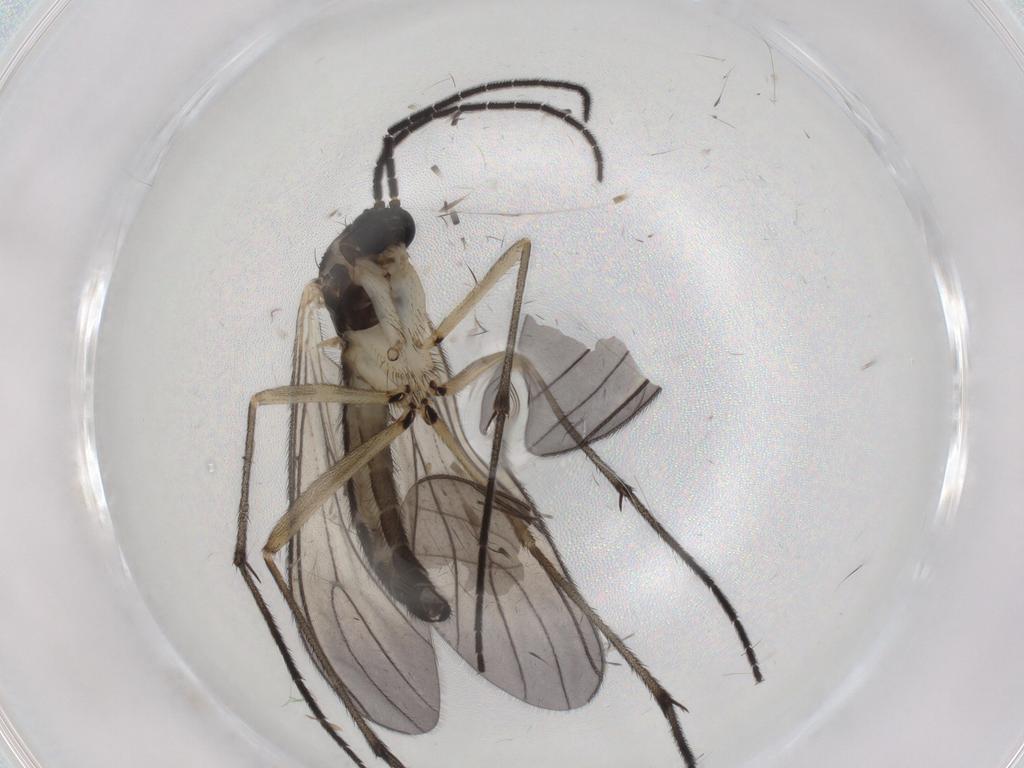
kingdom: Animalia
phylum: Arthropoda
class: Insecta
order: Diptera
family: Sciaridae
